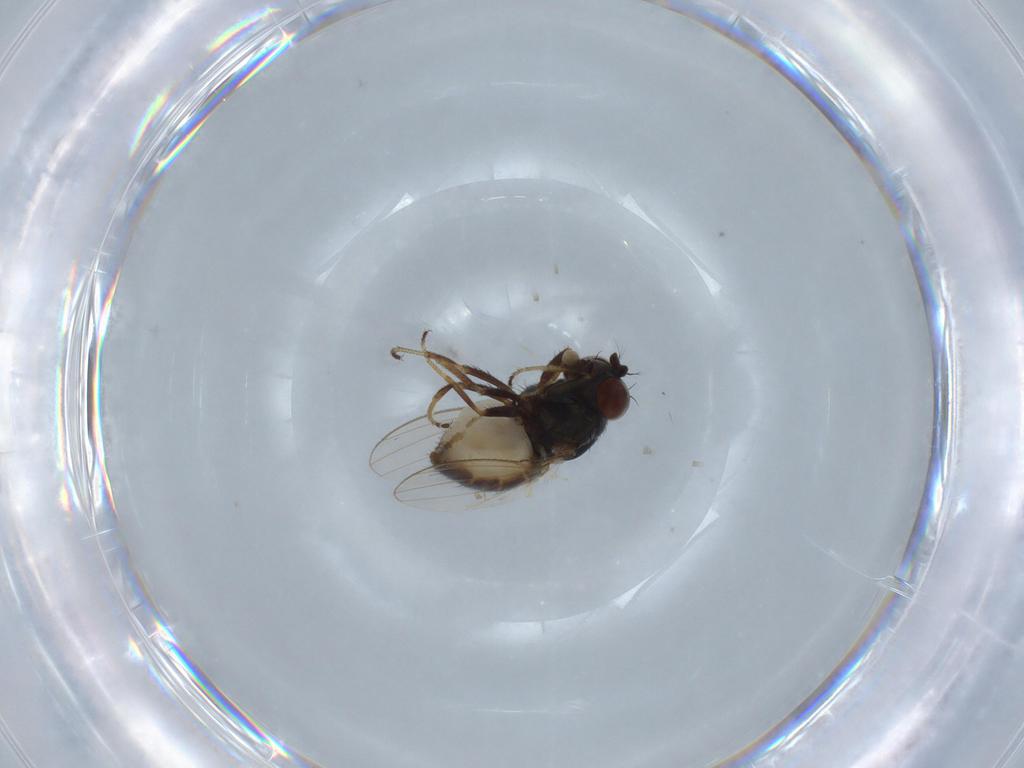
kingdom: Animalia
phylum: Arthropoda
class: Insecta
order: Diptera
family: Ephydridae
